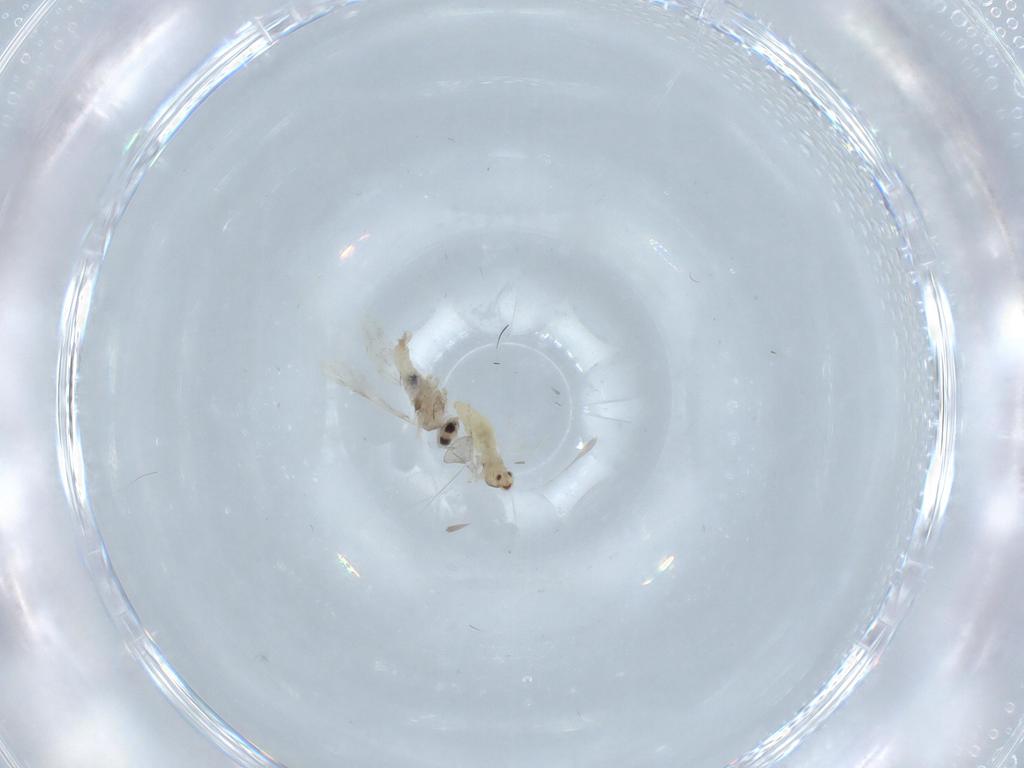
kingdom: Animalia
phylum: Arthropoda
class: Insecta
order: Diptera
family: Cecidomyiidae
